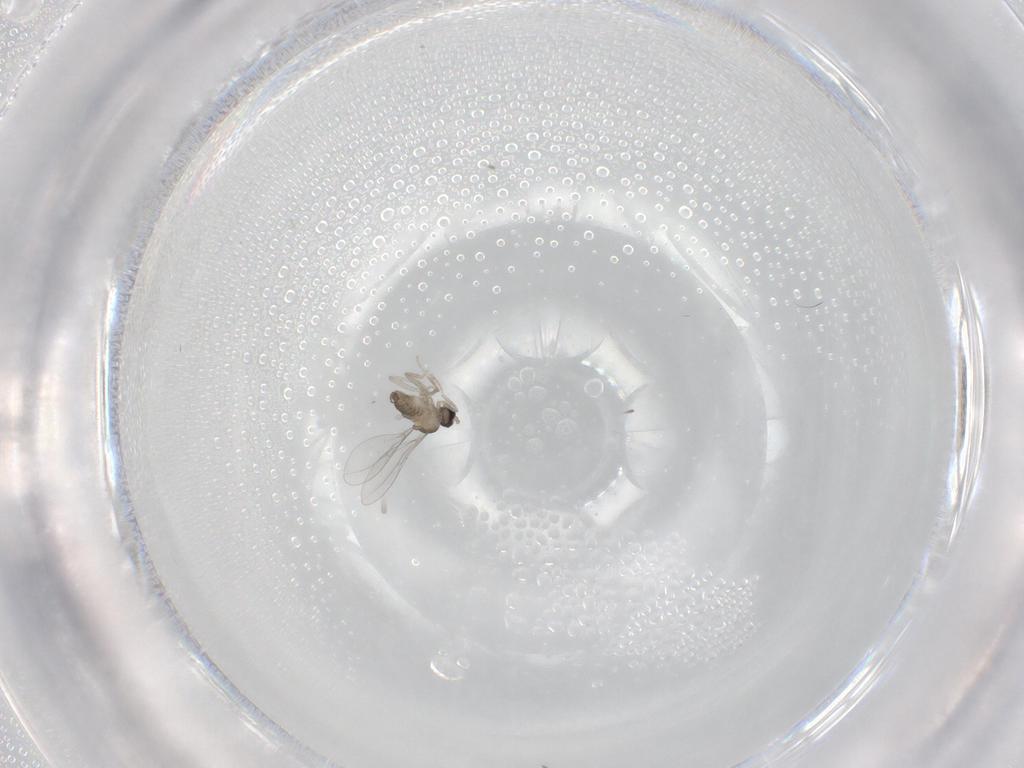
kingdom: Animalia
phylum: Arthropoda
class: Insecta
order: Diptera
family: Cecidomyiidae
